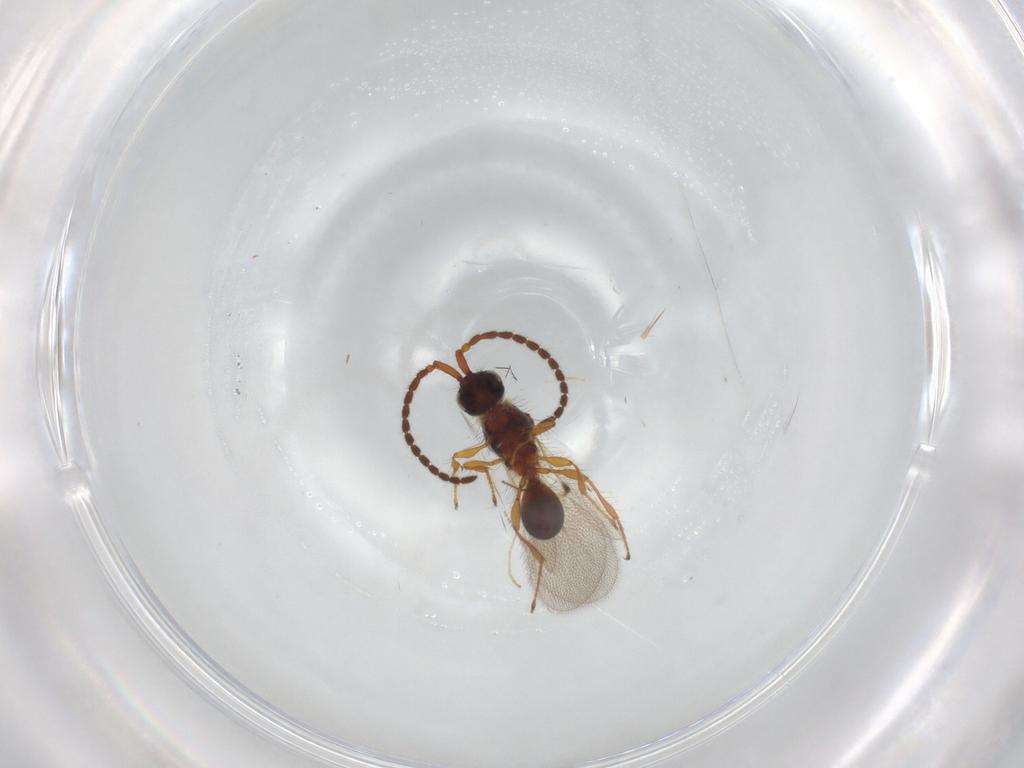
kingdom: Animalia
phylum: Arthropoda
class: Insecta
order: Hymenoptera
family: Diapriidae
